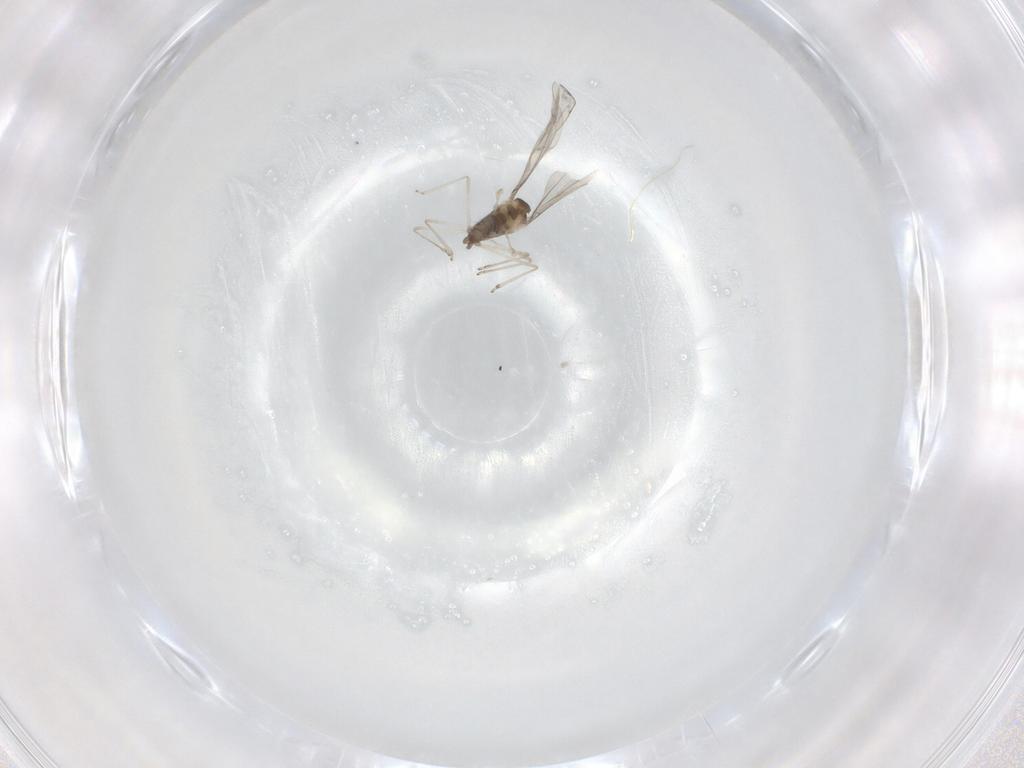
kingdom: Animalia
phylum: Arthropoda
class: Insecta
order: Diptera
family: Cecidomyiidae
